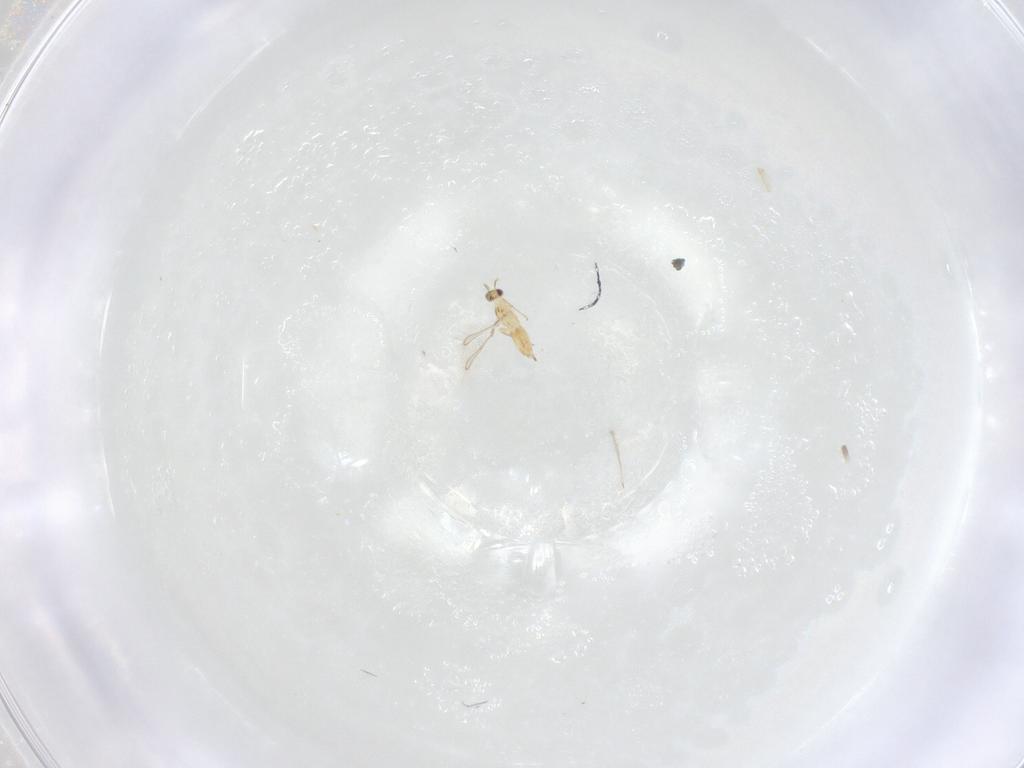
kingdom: Animalia
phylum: Arthropoda
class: Insecta
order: Hymenoptera
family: Mymaridae
